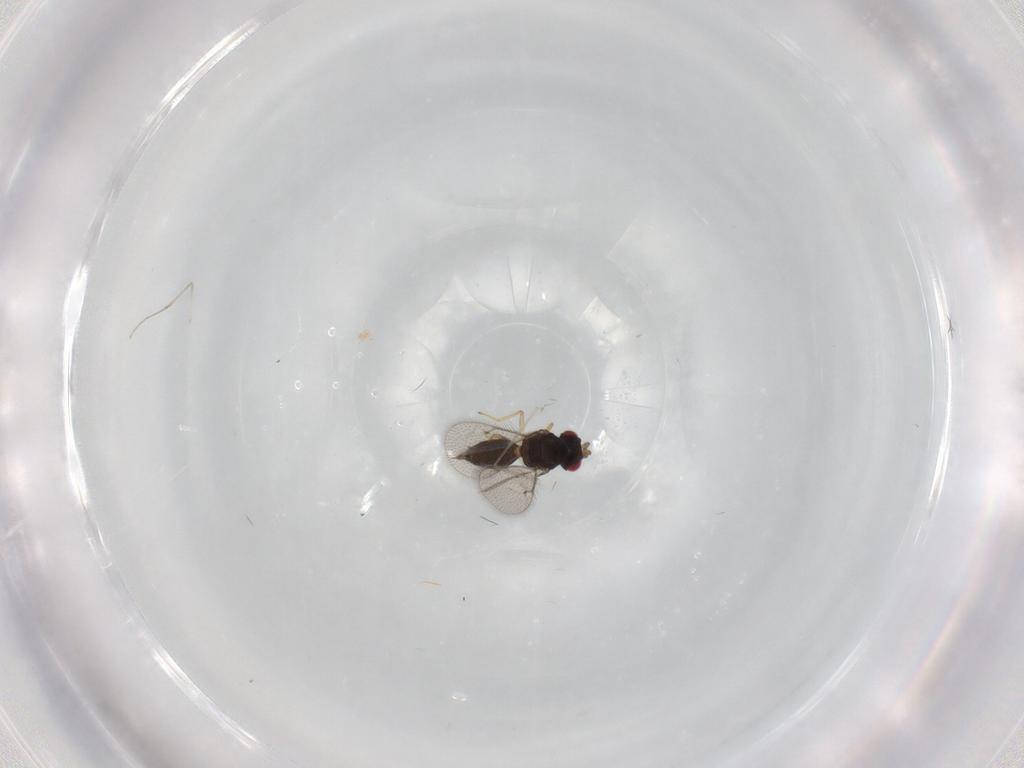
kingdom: Animalia
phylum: Arthropoda
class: Insecta
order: Hymenoptera
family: Eulophidae
